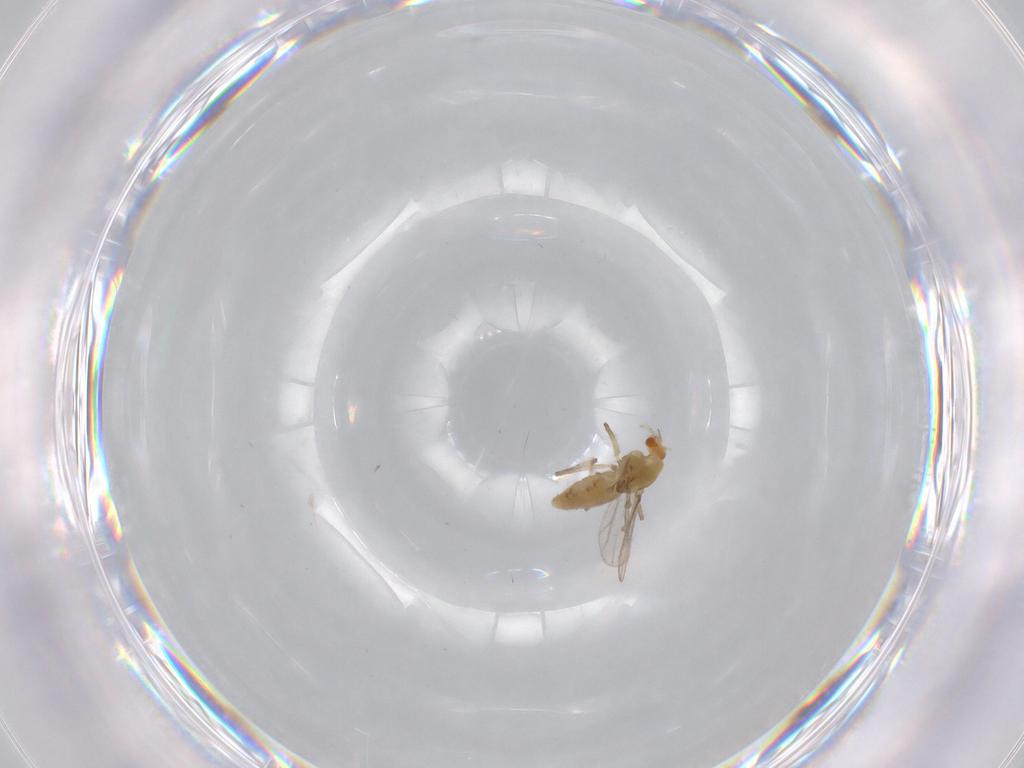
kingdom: Animalia
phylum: Arthropoda
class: Insecta
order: Diptera
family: Chironomidae
